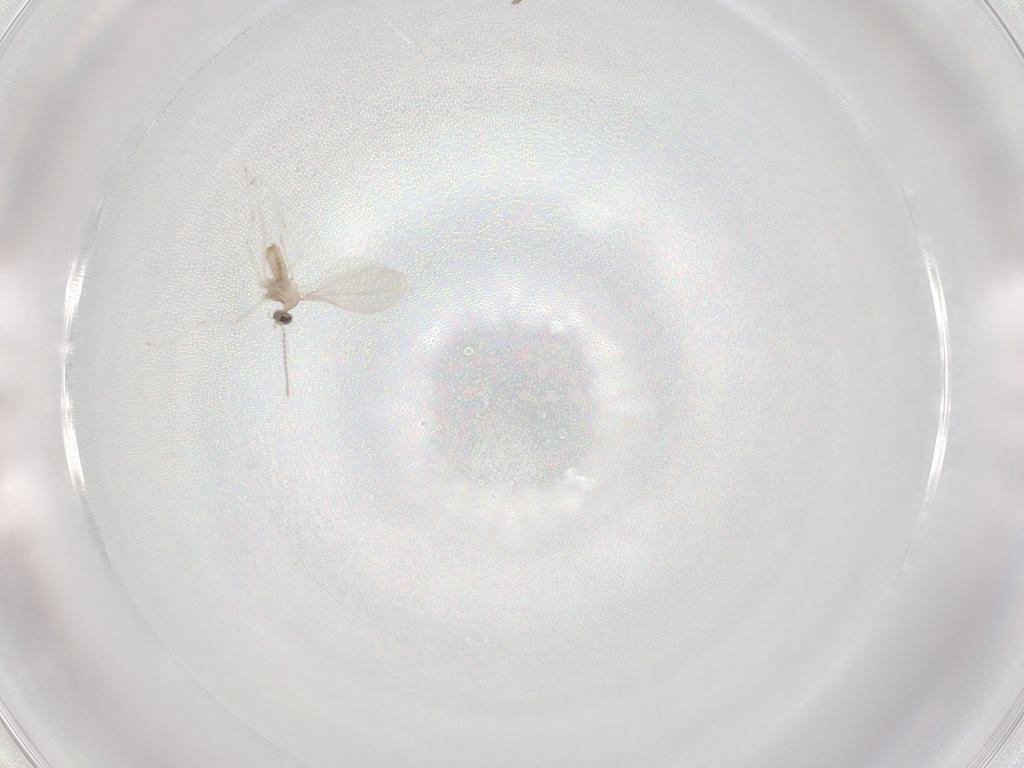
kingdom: Animalia
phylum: Arthropoda
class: Insecta
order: Diptera
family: Cecidomyiidae
